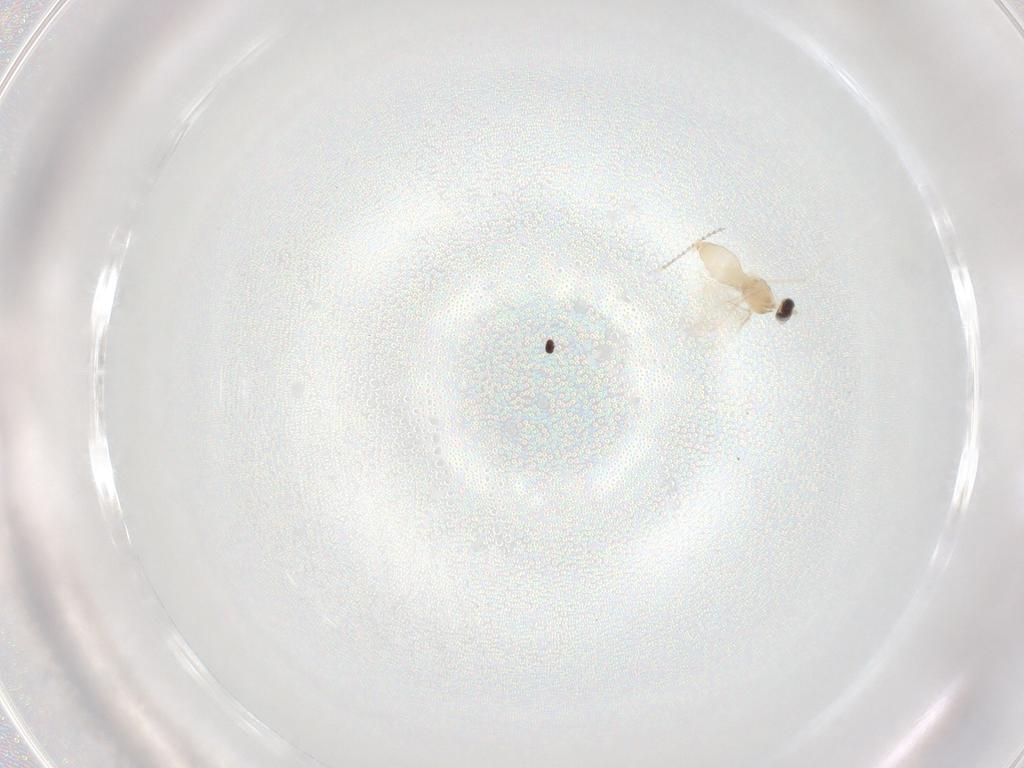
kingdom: Animalia
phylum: Arthropoda
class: Insecta
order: Diptera
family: Cecidomyiidae
